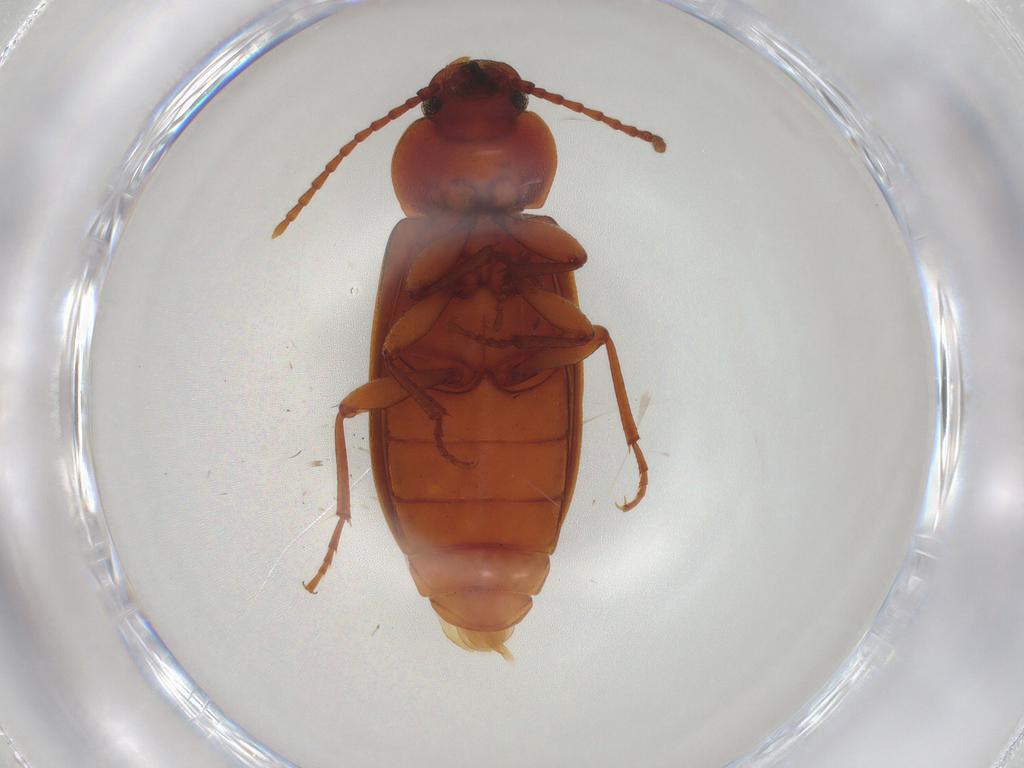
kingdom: Animalia
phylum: Arthropoda
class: Insecta
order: Coleoptera
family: Tenebrionidae
